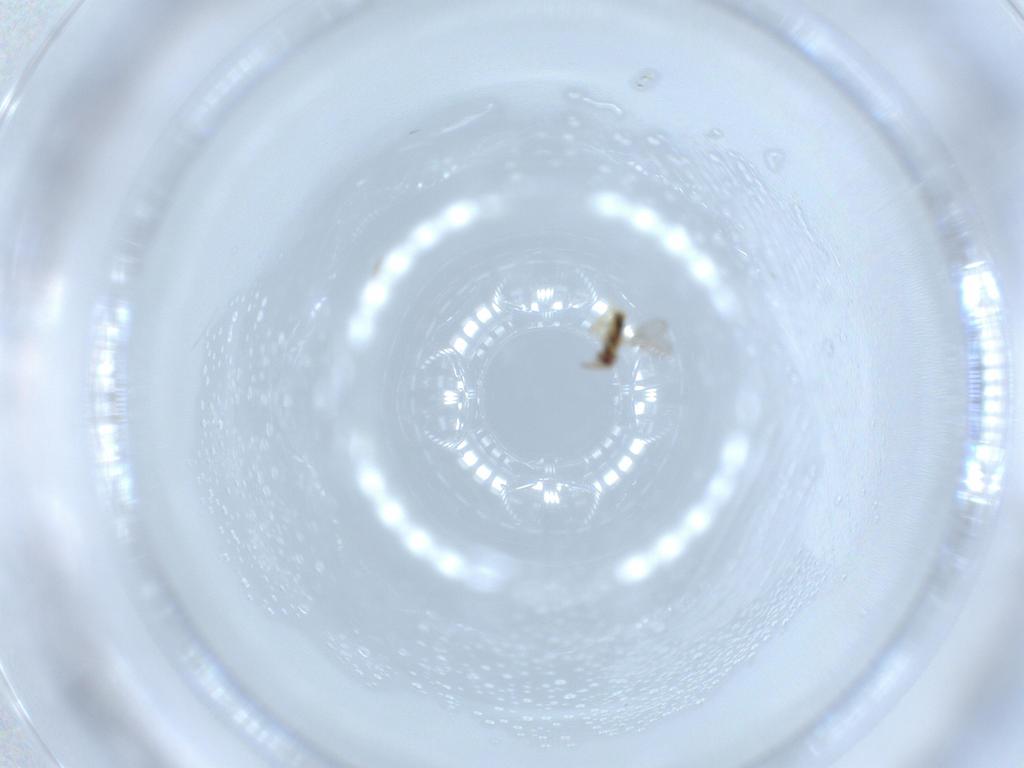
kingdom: Animalia
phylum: Arthropoda
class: Insecta
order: Hymenoptera
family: Aphelinidae
